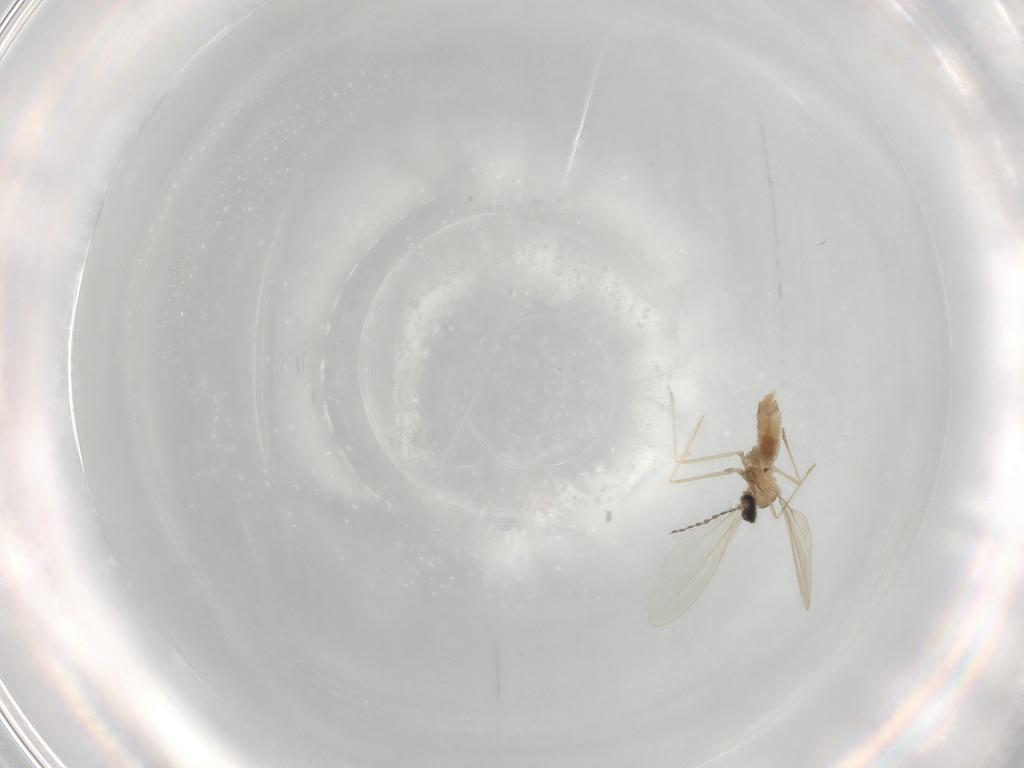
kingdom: Animalia
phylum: Arthropoda
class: Insecta
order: Diptera
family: Cecidomyiidae
